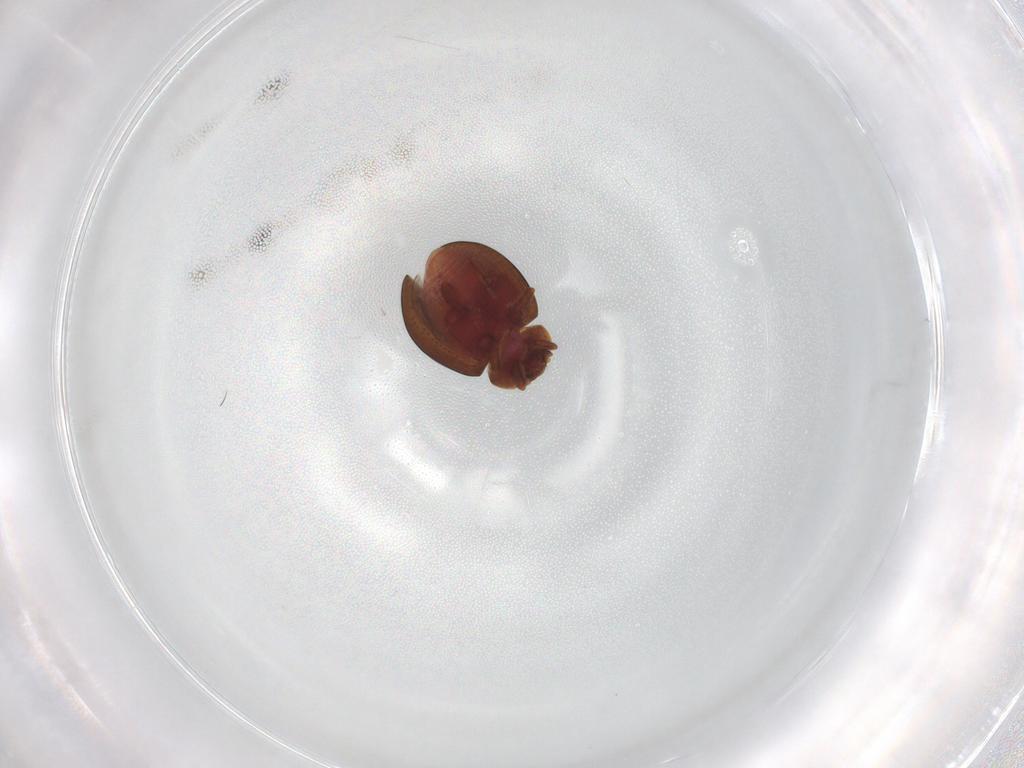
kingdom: Animalia
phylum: Arthropoda
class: Insecta
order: Coleoptera
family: Coccinellidae
